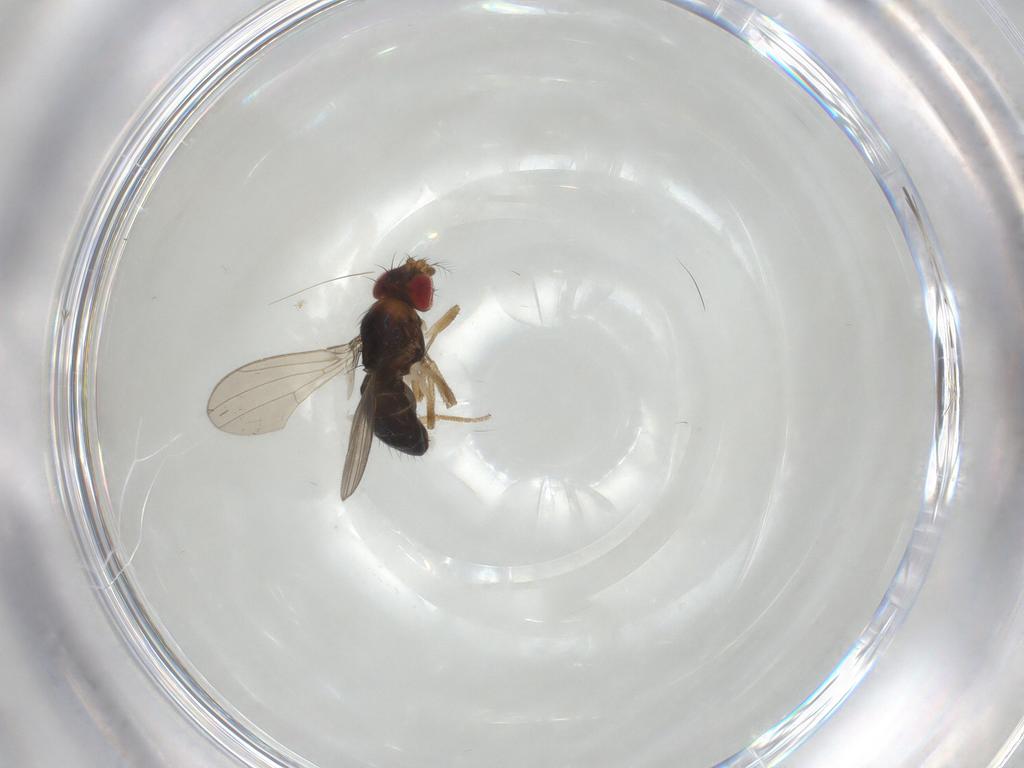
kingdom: Animalia
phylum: Arthropoda
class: Insecta
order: Diptera
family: Drosophilidae
